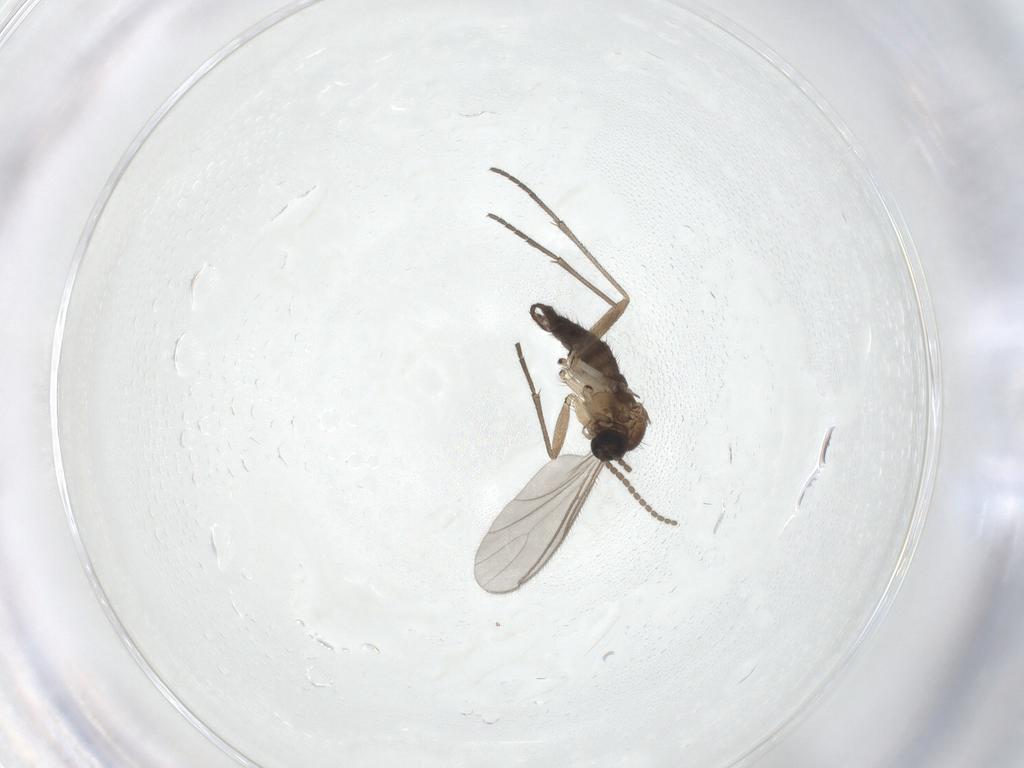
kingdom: Animalia
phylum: Arthropoda
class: Insecta
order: Diptera
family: Sciaridae
